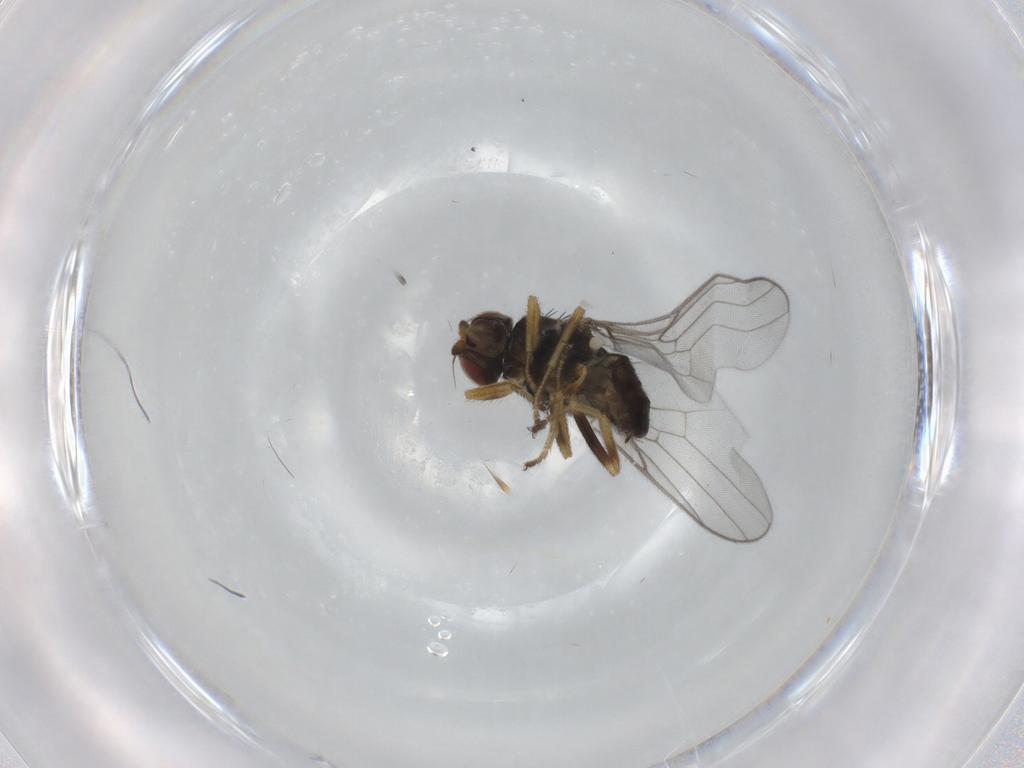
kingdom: Animalia
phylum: Arthropoda
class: Insecta
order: Diptera
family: Chloropidae
